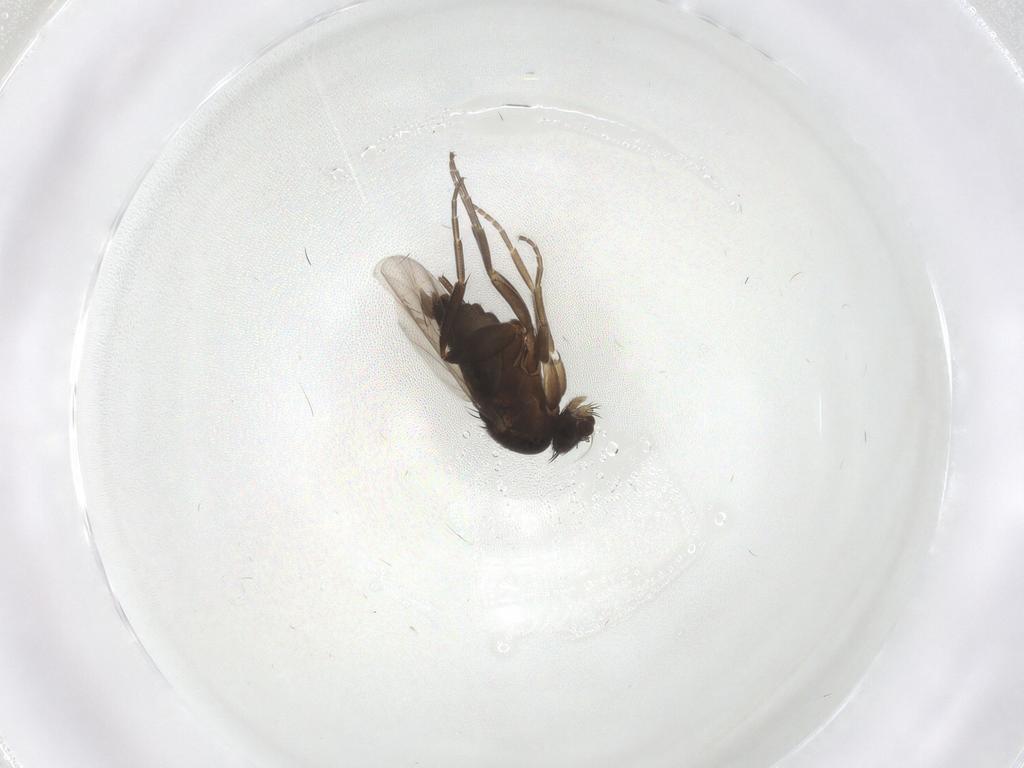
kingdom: Animalia
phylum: Arthropoda
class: Insecta
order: Diptera
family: Phoridae
